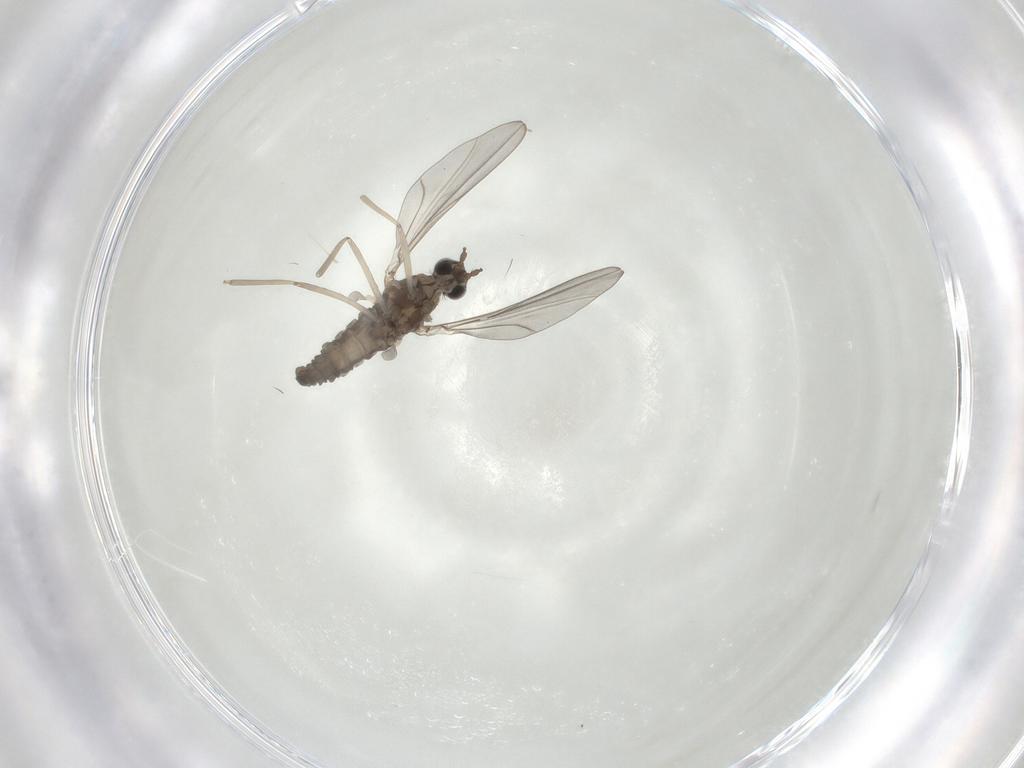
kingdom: Animalia
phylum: Arthropoda
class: Insecta
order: Diptera
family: Cecidomyiidae
